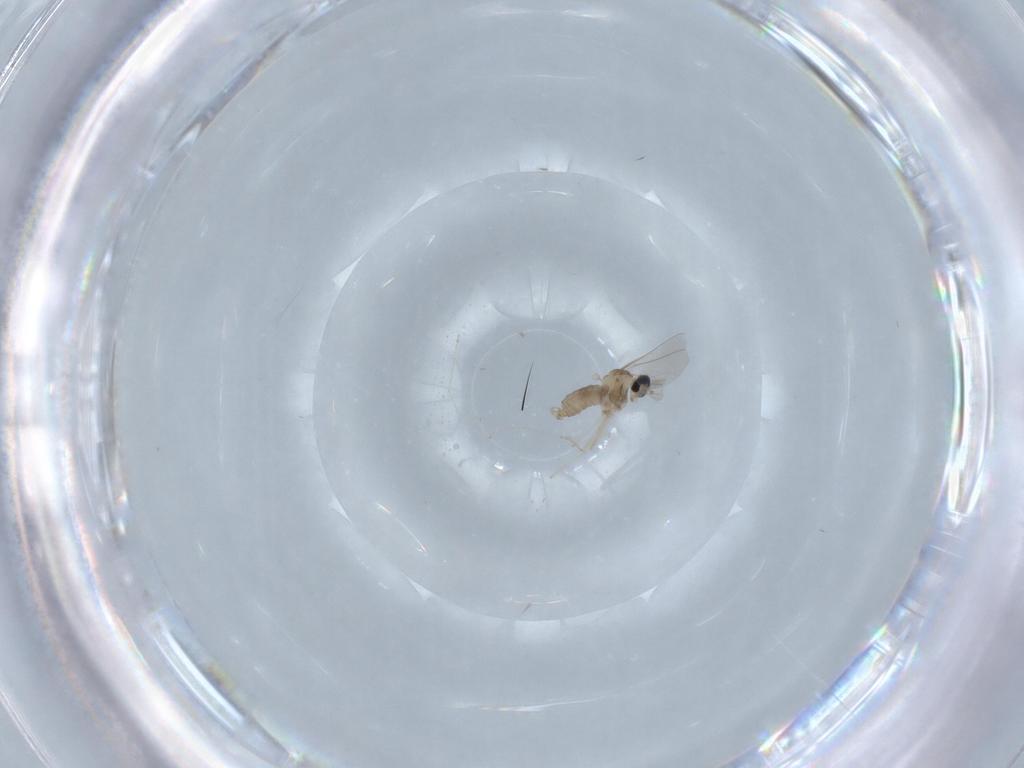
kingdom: Animalia
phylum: Arthropoda
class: Insecta
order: Diptera
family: Cecidomyiidae
